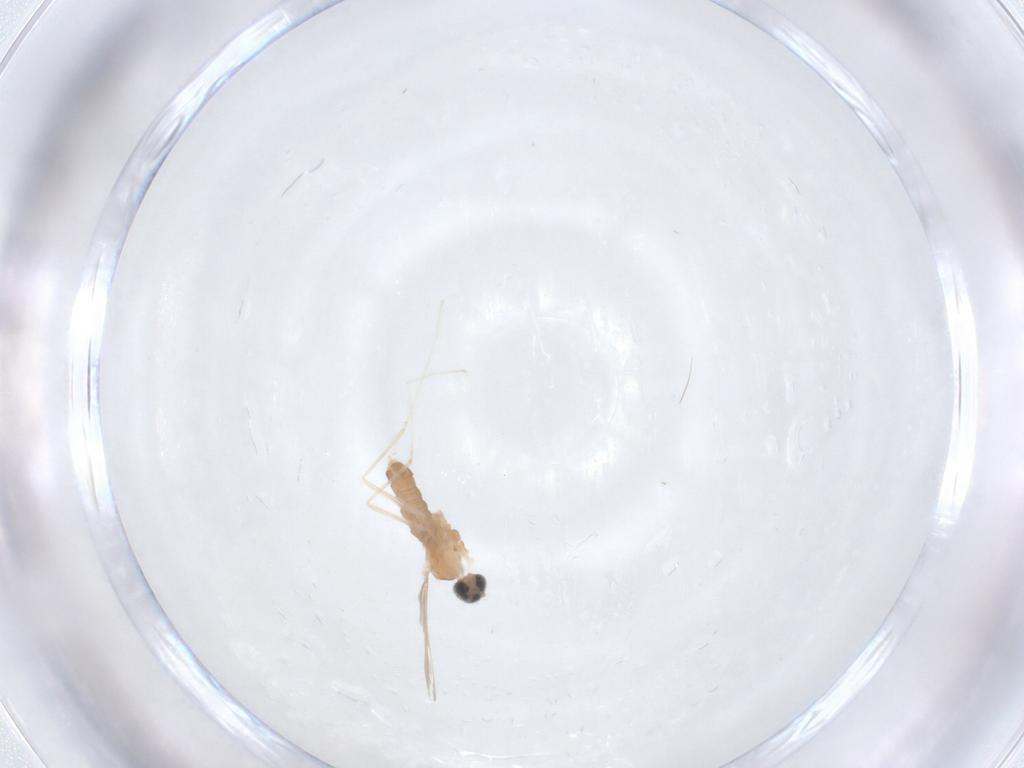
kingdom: Animalia
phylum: Arthropoda
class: Insecta
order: Diptera
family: Cecidomyiidae
